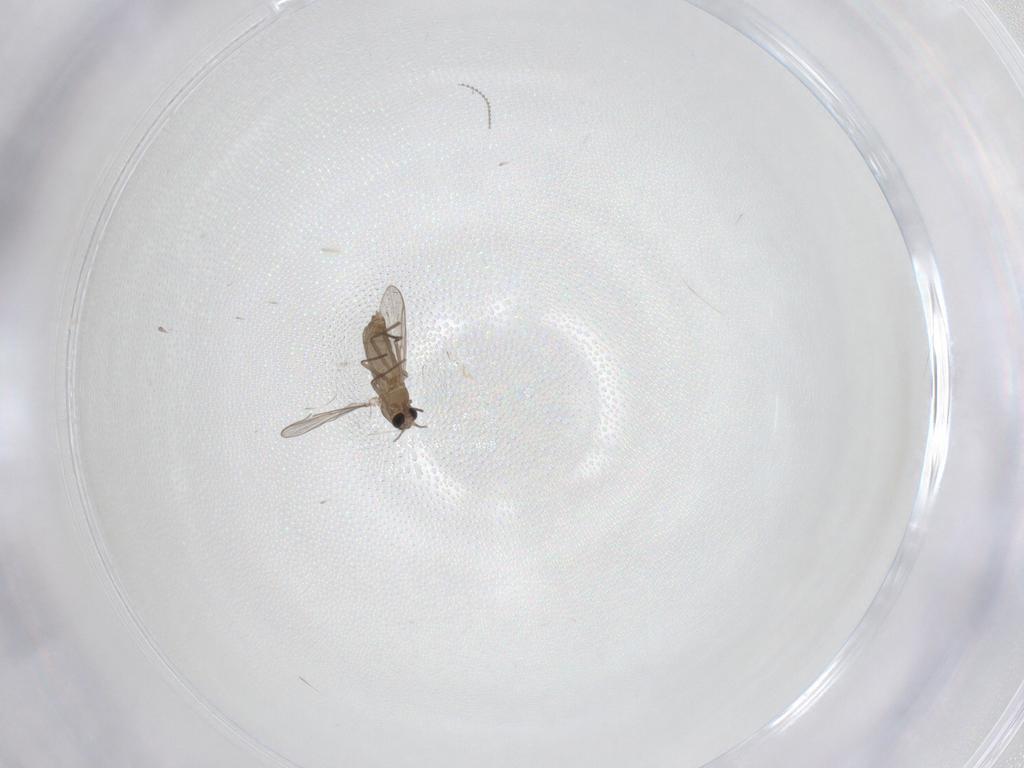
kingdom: Animalia
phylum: Arthropoda
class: Insecta
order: Diptera
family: Chironomidae
